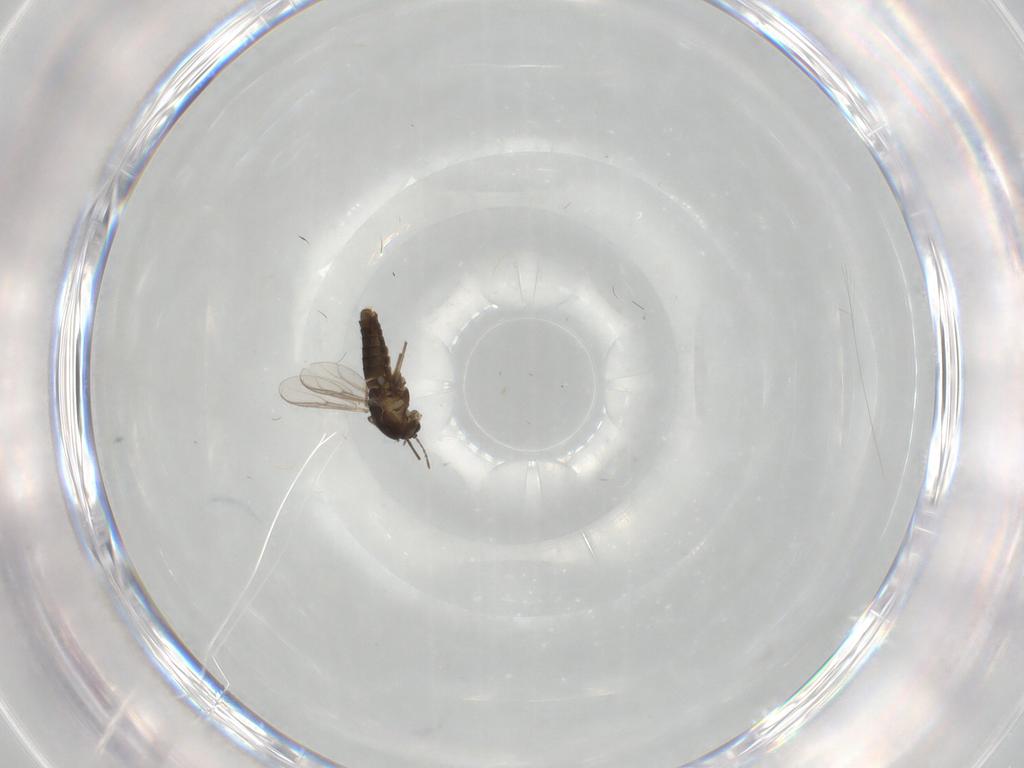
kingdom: Animalia
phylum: Arthropoda
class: Insecta
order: Diptera
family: Chironomidae
